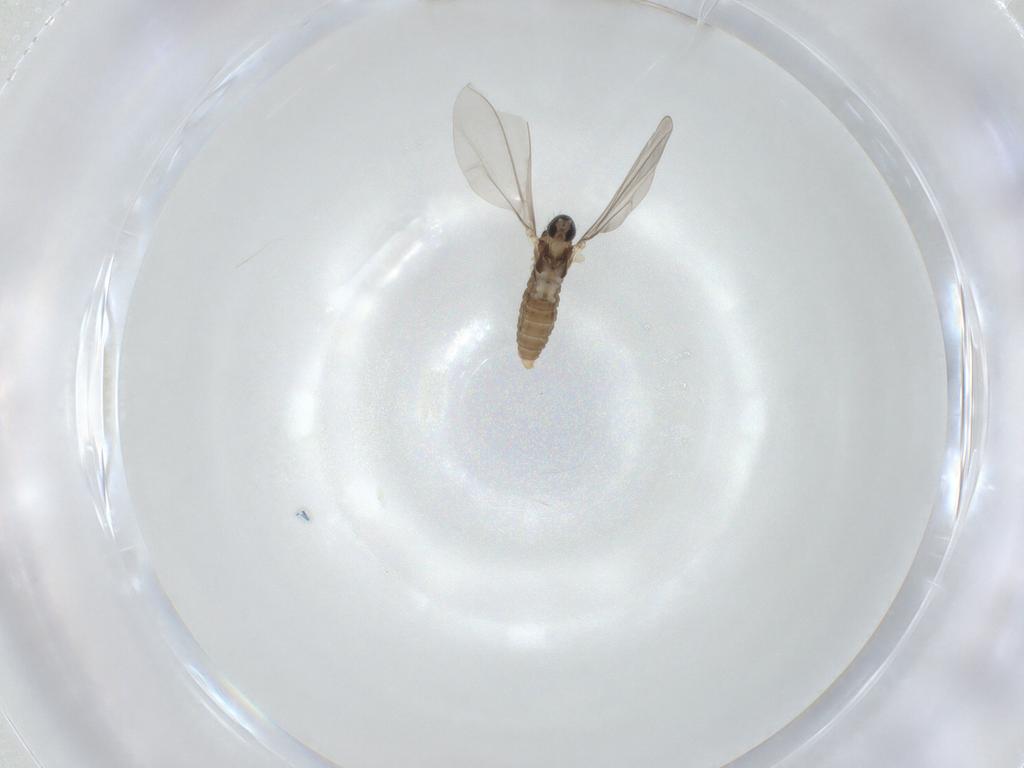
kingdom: Animalia
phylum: Arthropoda
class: Insecta
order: Diptera
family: Cecidomyiidae
